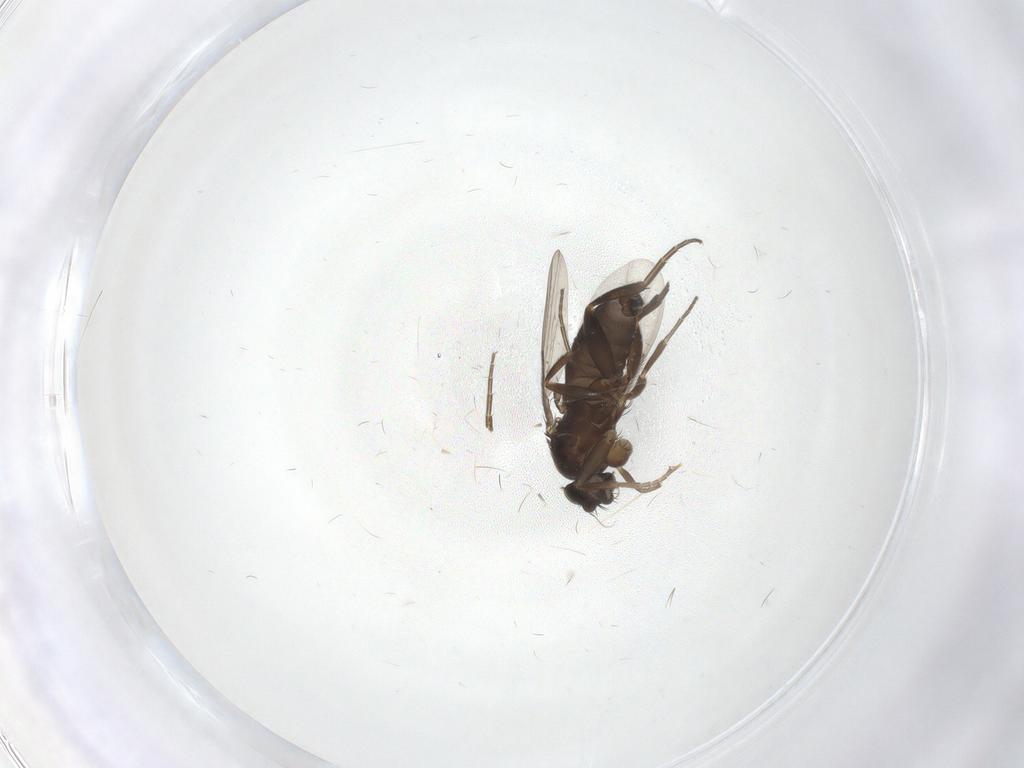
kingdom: Animalia
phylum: Arthropoda
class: Insecta
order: Diptera
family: Phoridae
